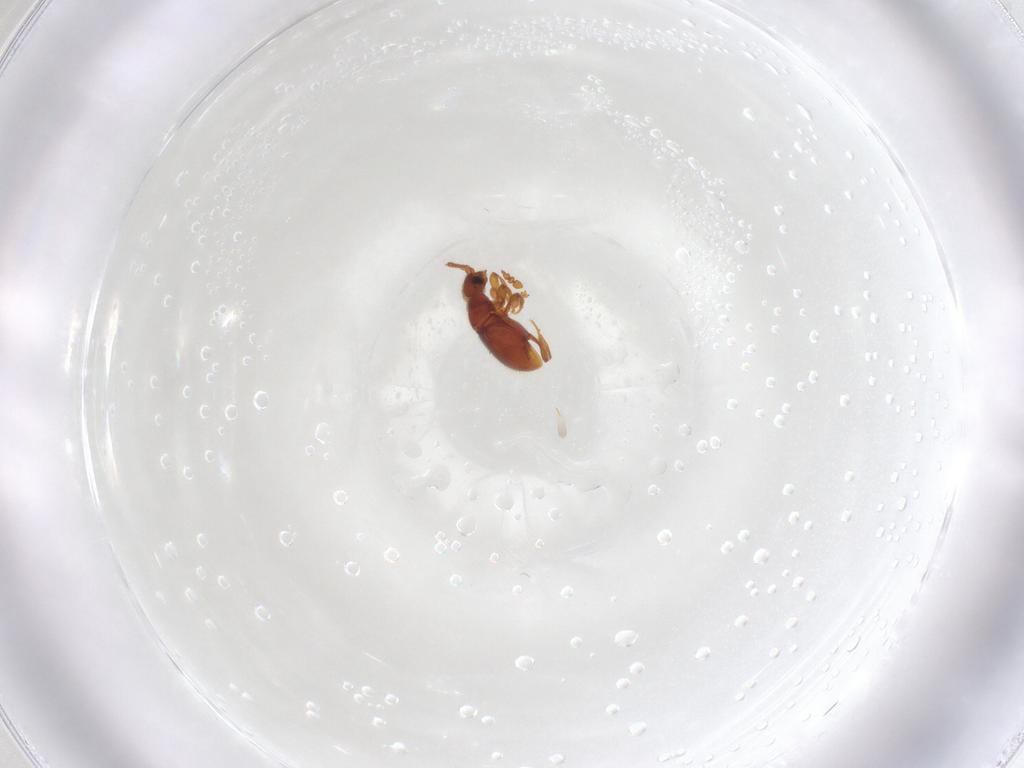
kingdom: Animalia
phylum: Arthropoda
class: Insecta
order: Coleoptera
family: Staphylinidae
